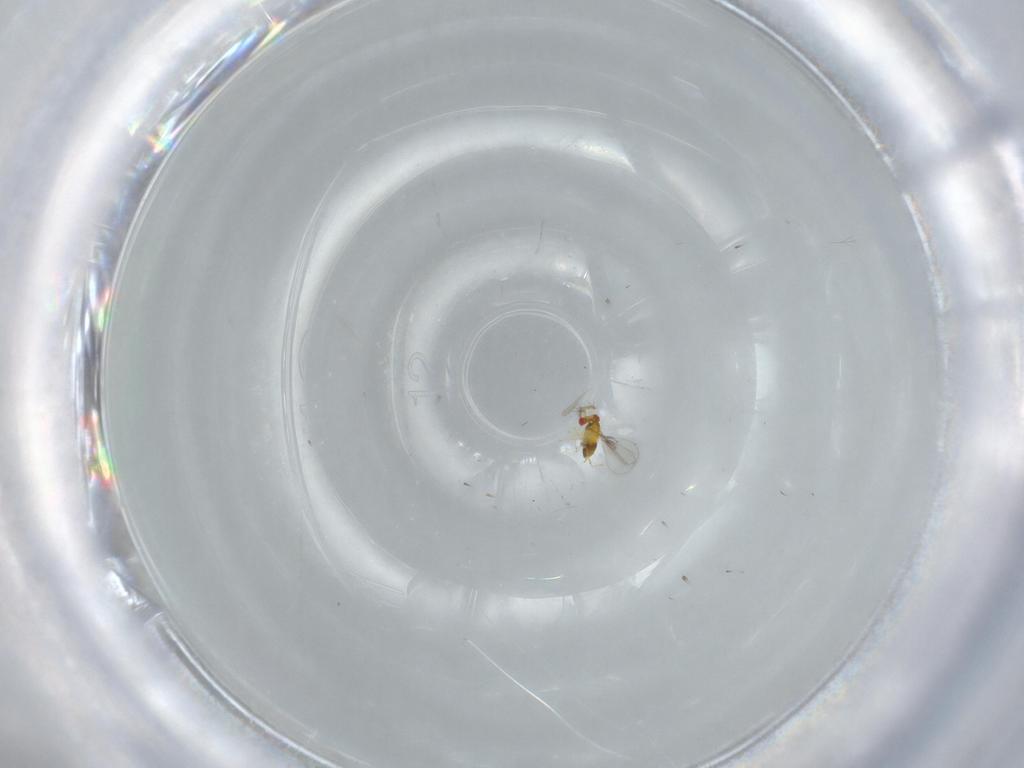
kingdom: Animalia
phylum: Arthropoda
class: Insecta
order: Hymenoptera
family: Trichogrammatidae
